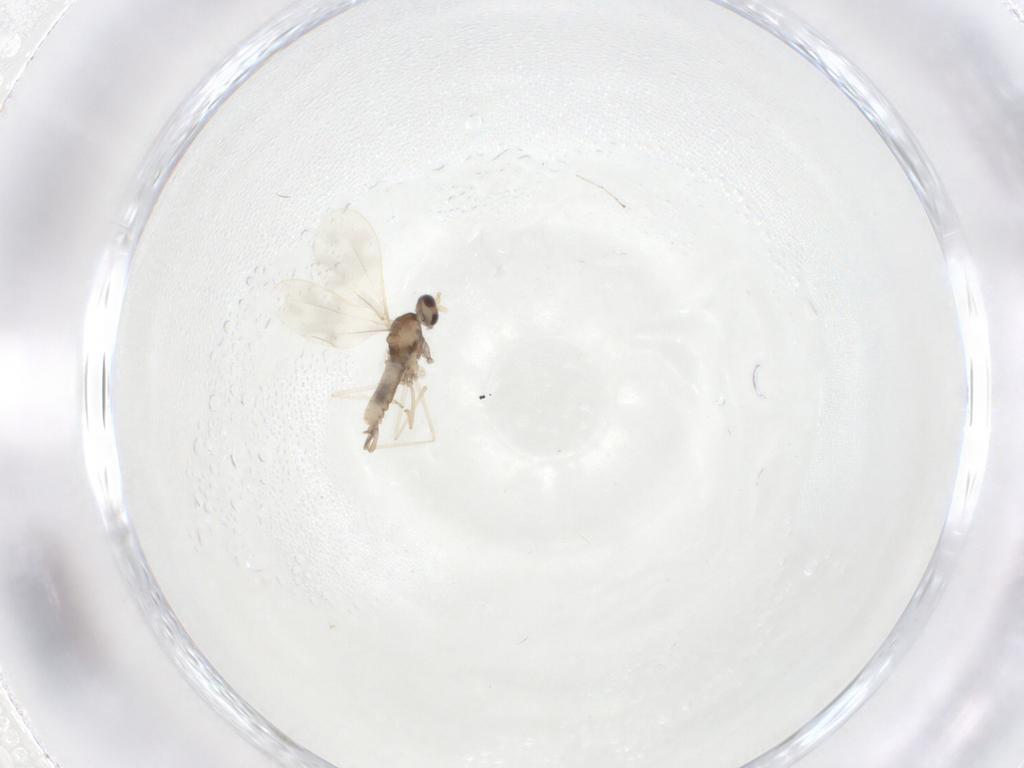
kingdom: Animalia
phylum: Arthropoda
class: Insecta
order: Diptera
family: Cecidomyiidae
